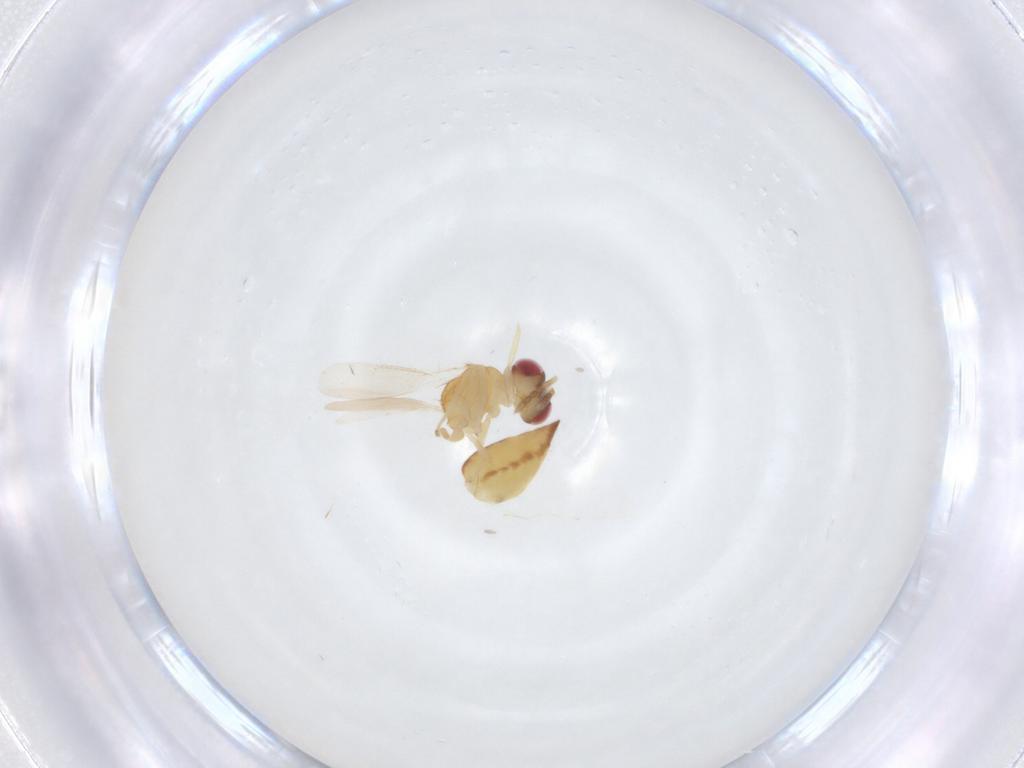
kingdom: Animalia
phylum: Arthropoda
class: Insecta
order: Hymenoptera
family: Eulophidae
